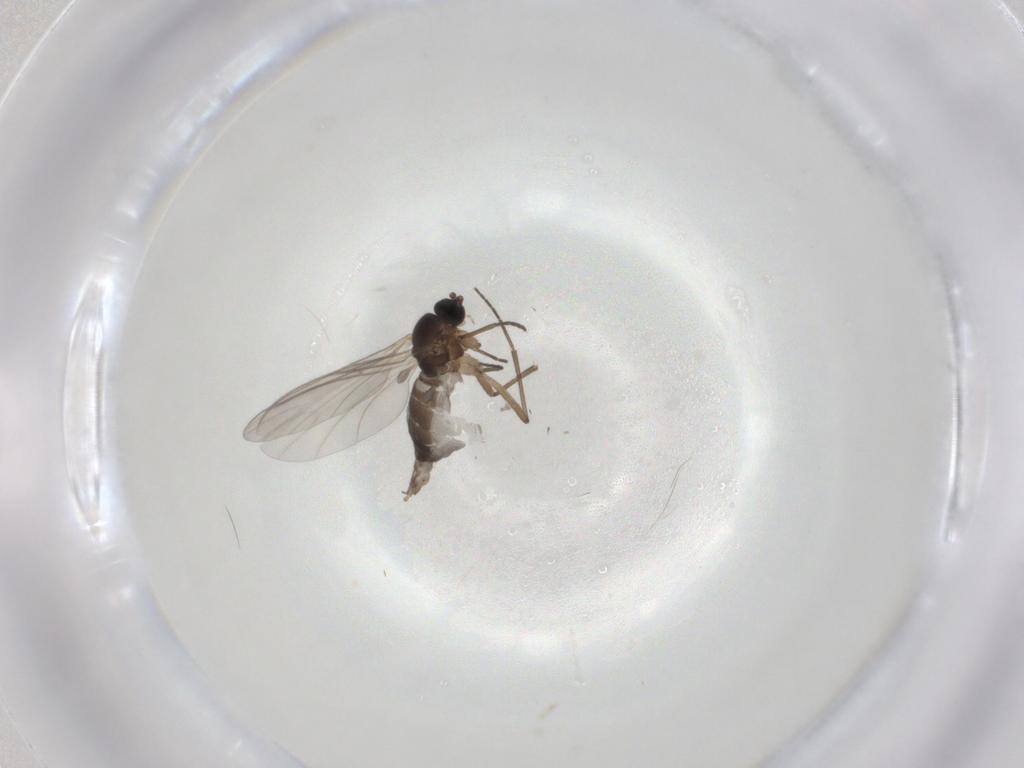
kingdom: Animalia
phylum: Arthropoda
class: Insecta
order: Diptera
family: Sciaridae
